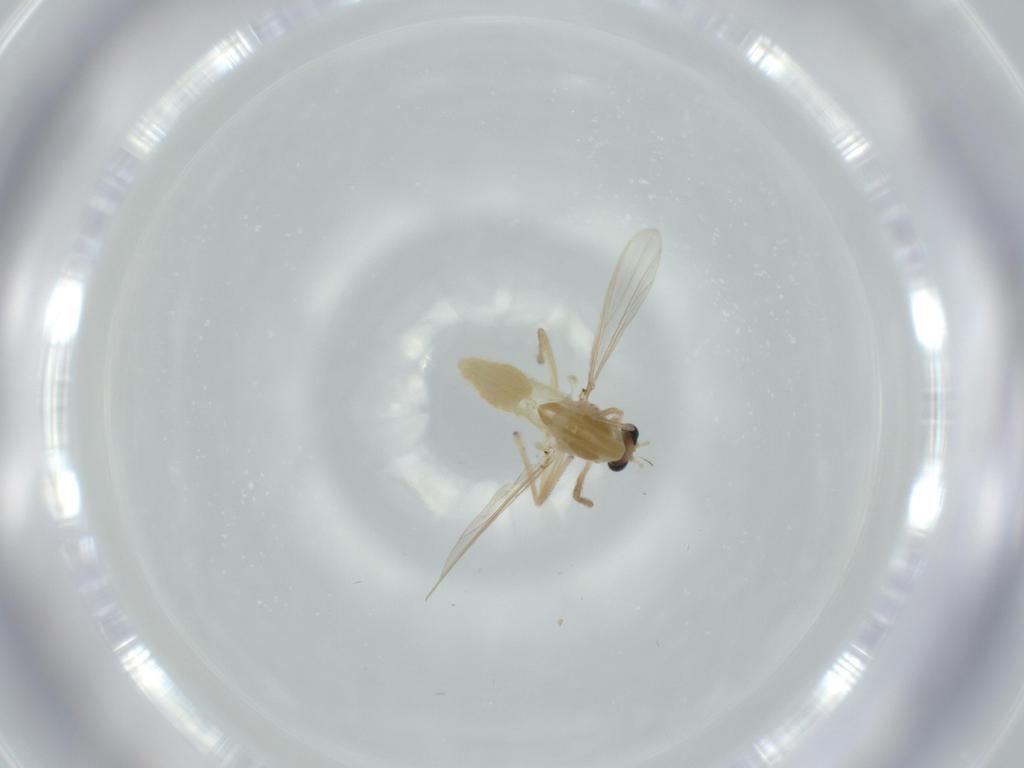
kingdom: Animalia
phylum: Arthropoda
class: Insecta
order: Diptera
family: Chironomidae
